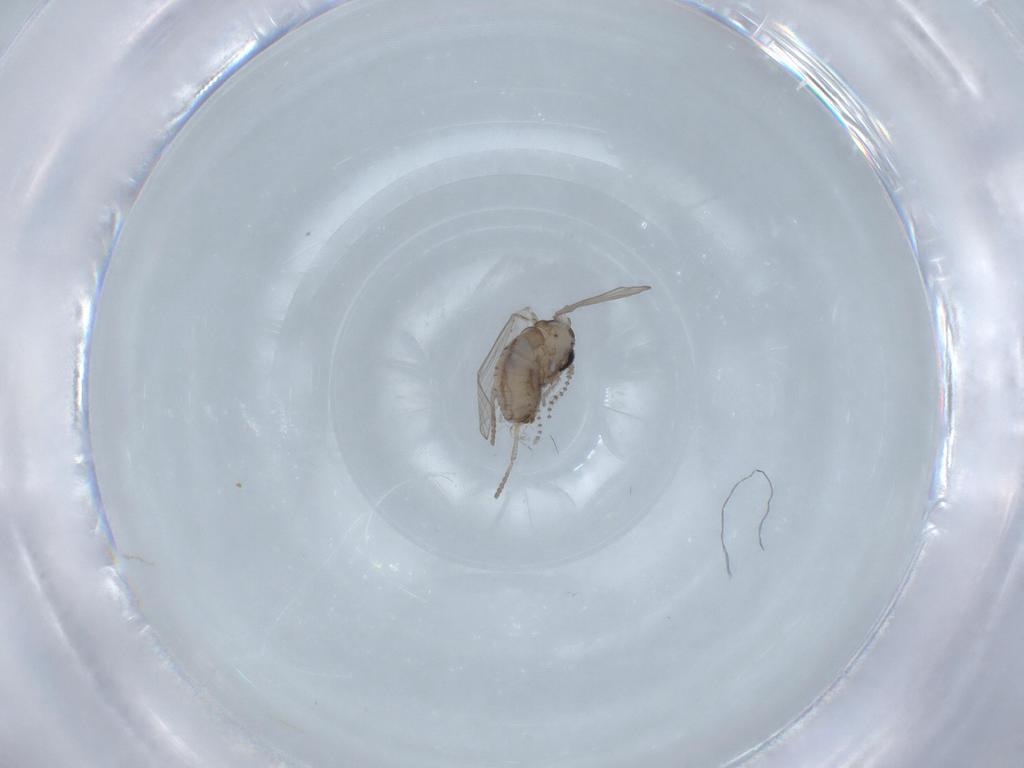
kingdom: Animalia
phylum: Arthropoda
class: Insecta
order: Diptera
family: Psychodidae
